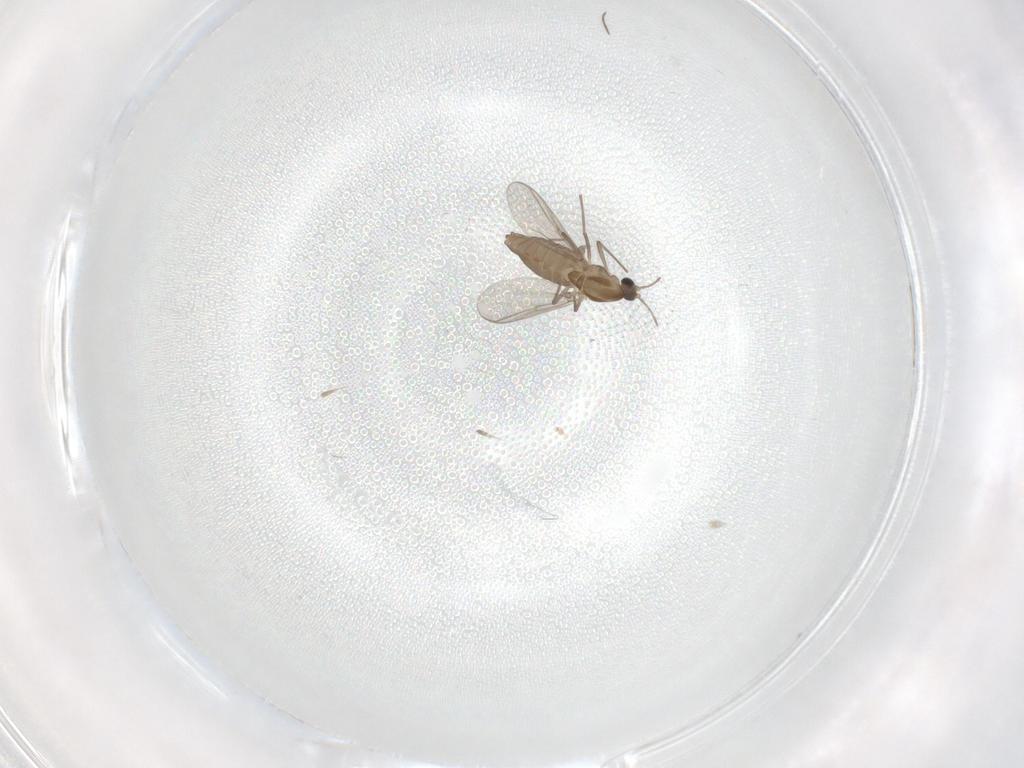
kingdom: Animalia
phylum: Arthropoda
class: Insecta
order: Diptera
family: Chironomidae
